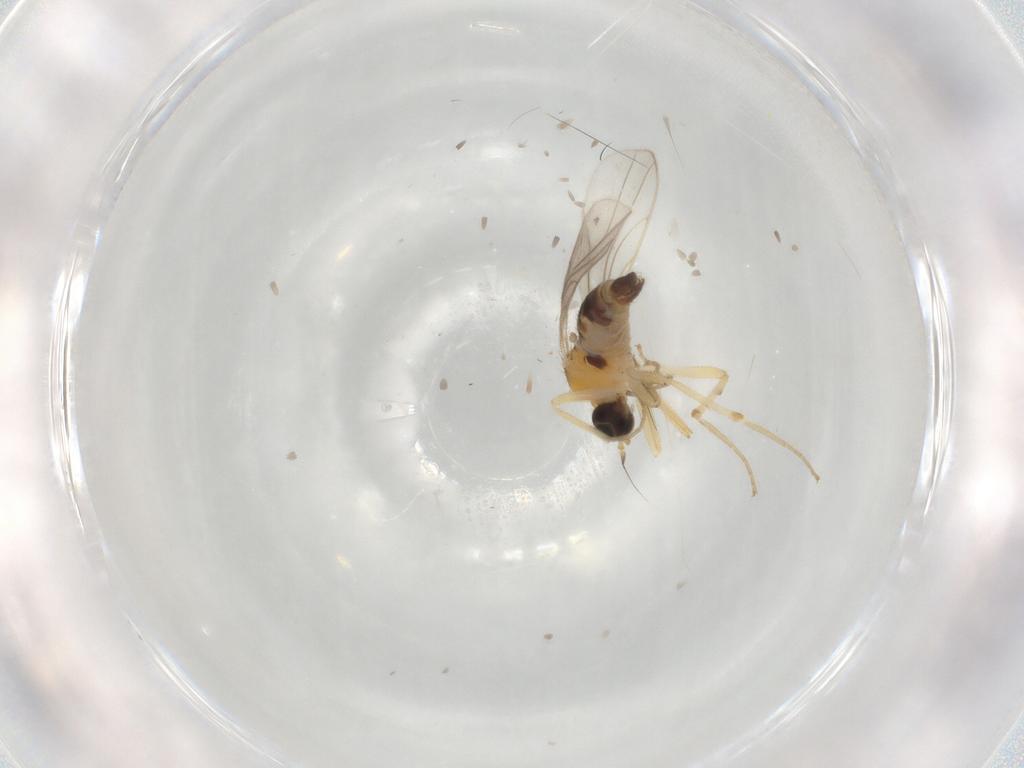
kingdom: Animalia
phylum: Arthropoda
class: Insecta
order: Diptera
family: Hybotidae
